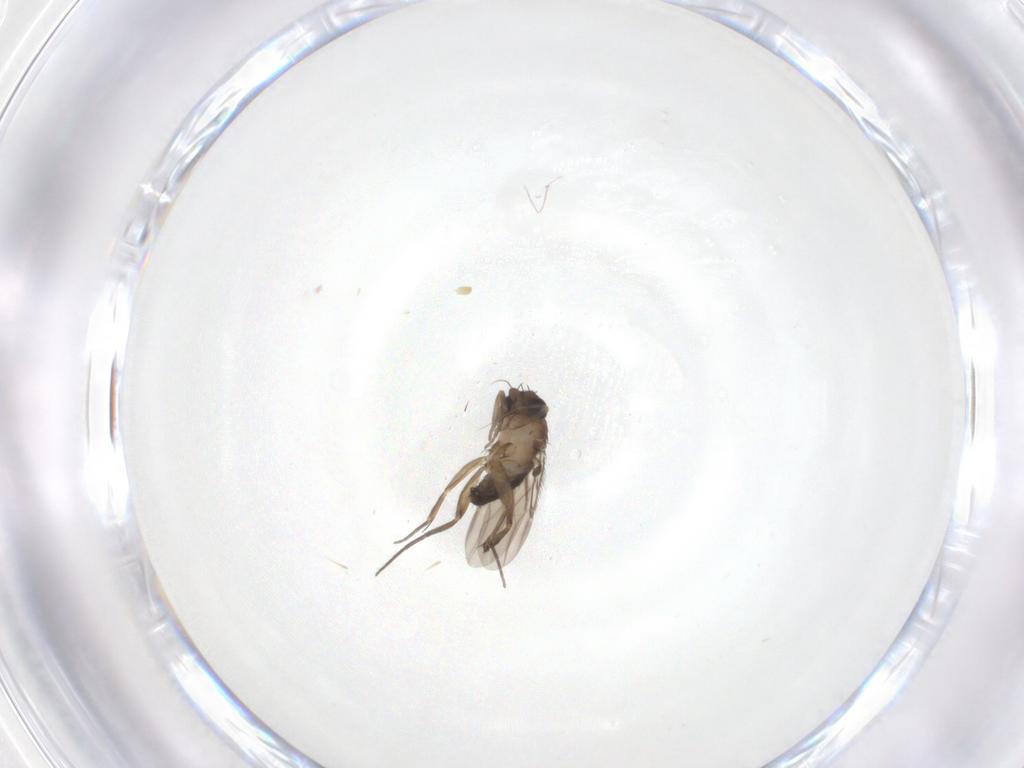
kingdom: Animalia
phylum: Arthropoda
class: Insecta
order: Diptera
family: Phoridae
